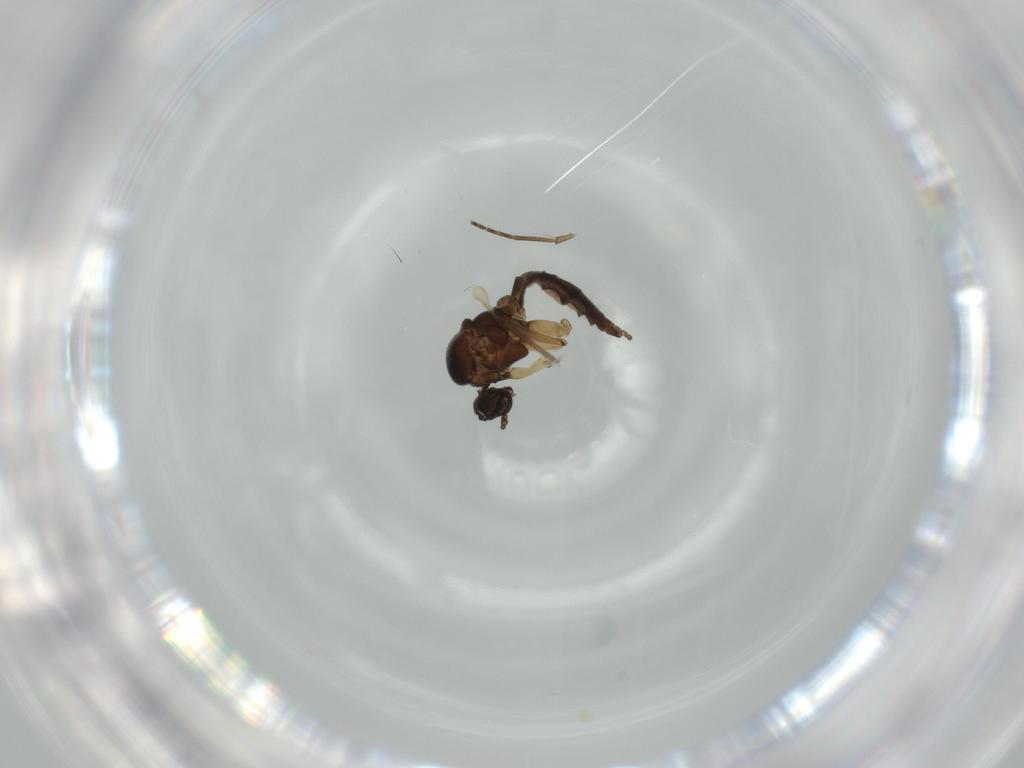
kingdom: Animalia
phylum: Arthropoda
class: Insecta
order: Diptera
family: Sciaridae
